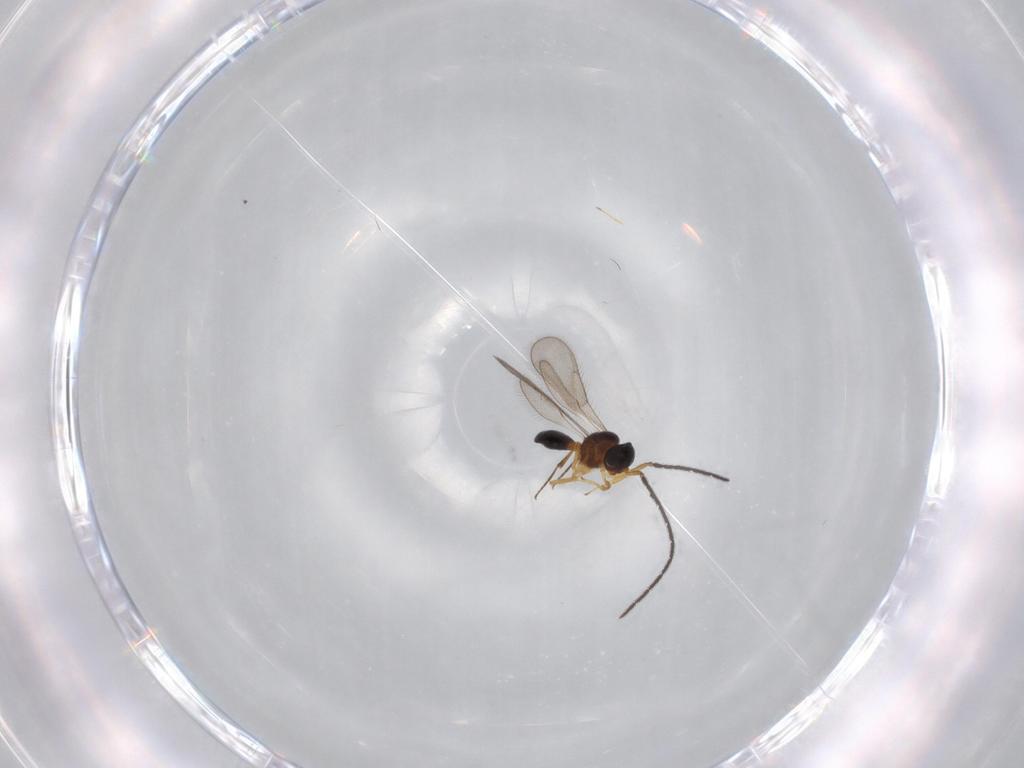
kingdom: Animalia
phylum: Arthropoda
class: Insecta
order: Hymenoptera
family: Scelionidae
